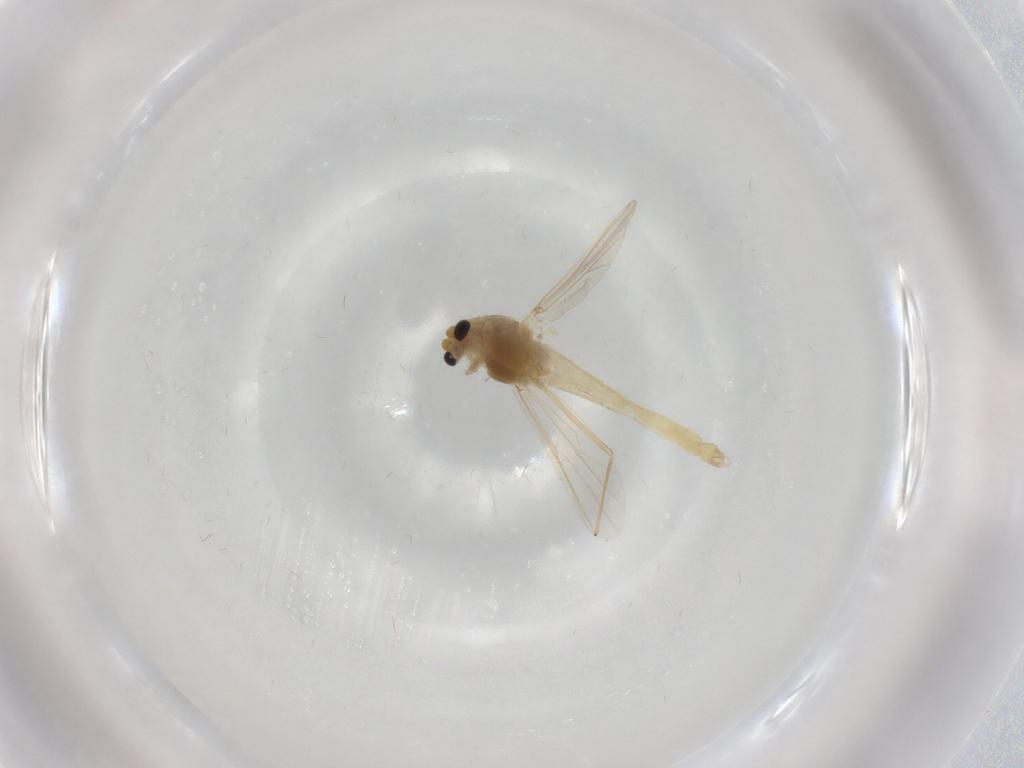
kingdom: Animalia
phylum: Arthropoda
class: Insecta
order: Diptera
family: Chironomidae
